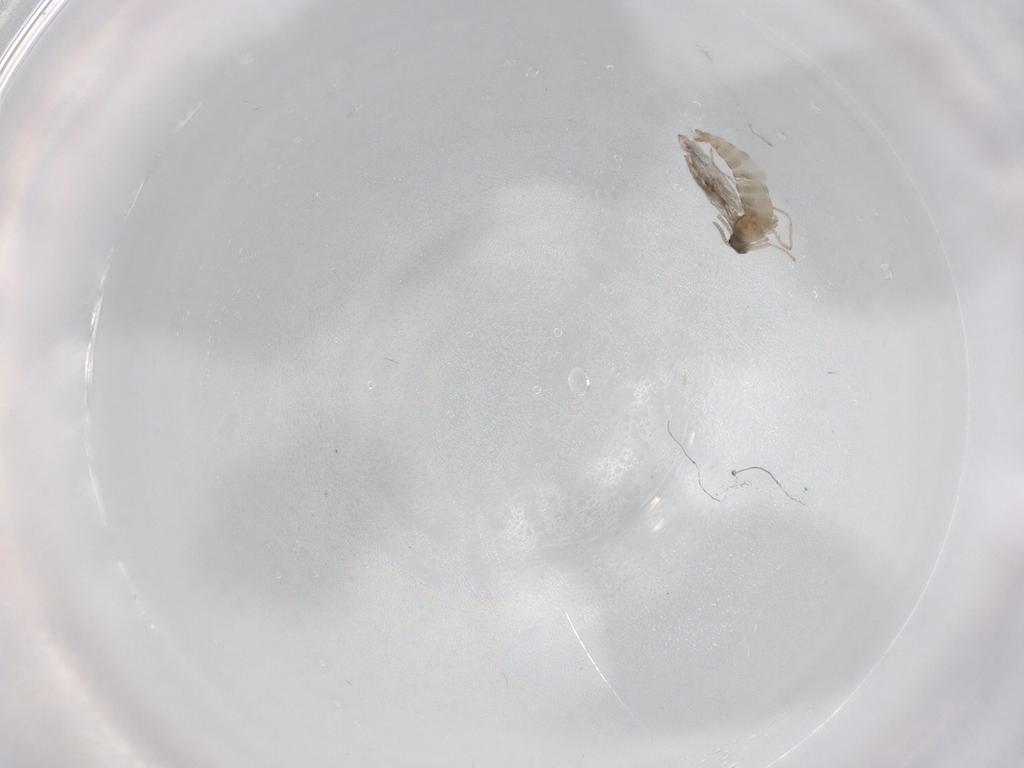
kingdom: Animalia
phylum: Arthropoda
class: Insecta
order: Diptera
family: Cecidomyiidae
